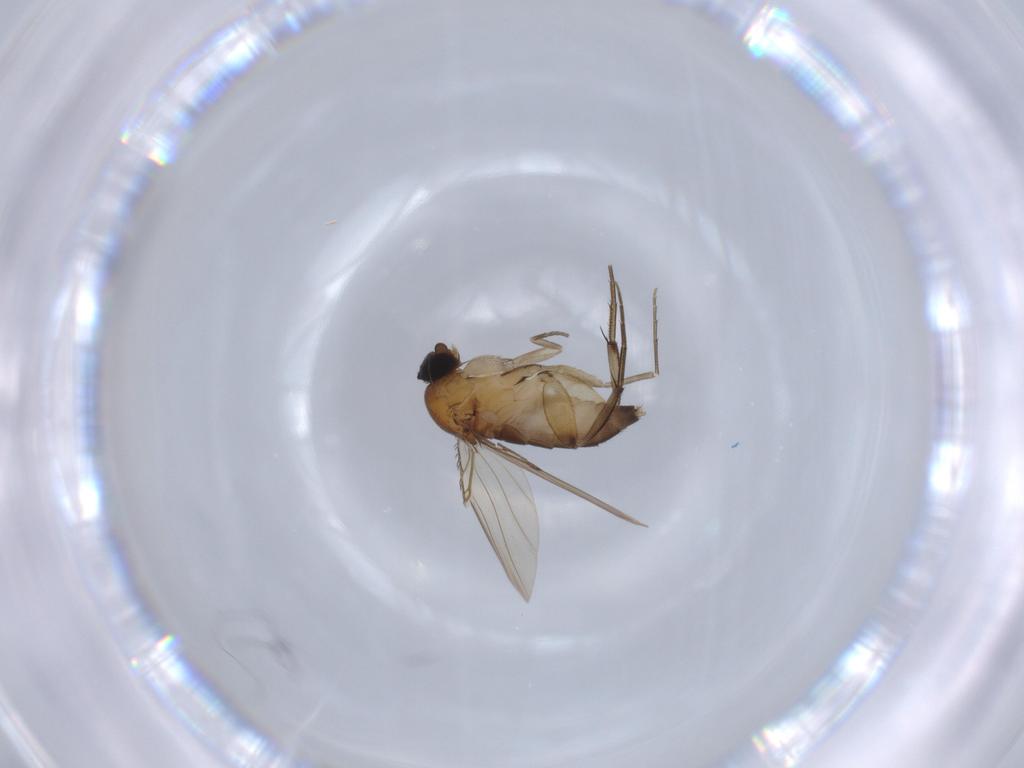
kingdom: Animalia
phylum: Arthropoda
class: Insecta
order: Diptera
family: Phoridae
